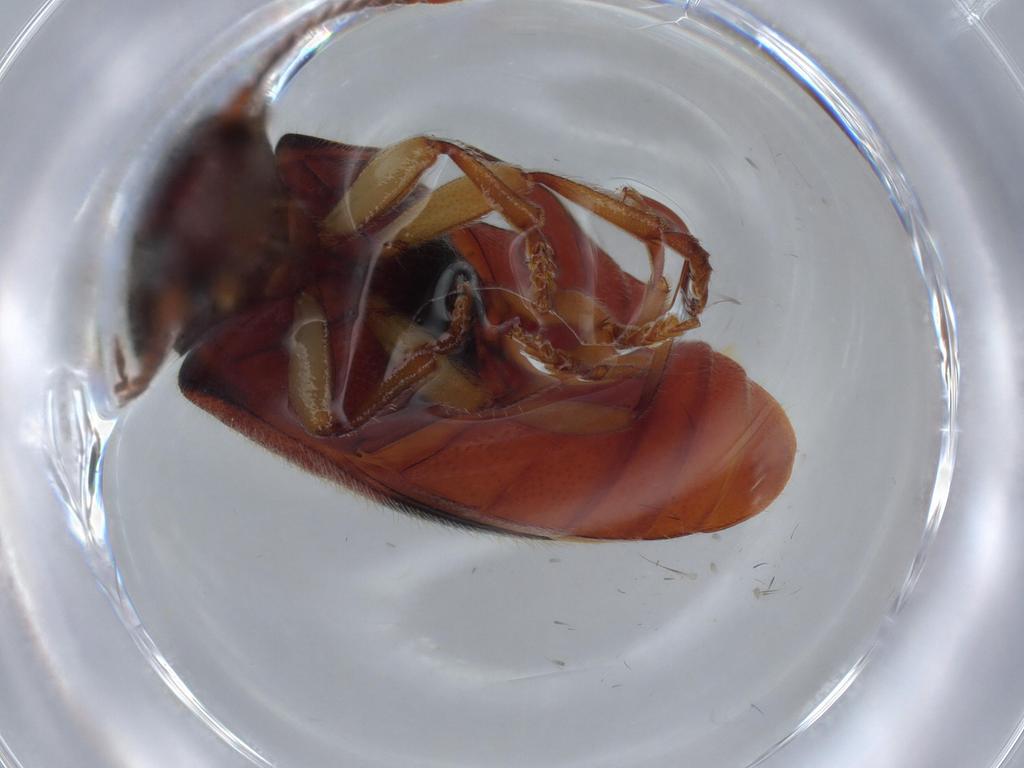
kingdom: Animalia
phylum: Arthropoda
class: Insecta
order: Coleoptera
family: Mycteridae
